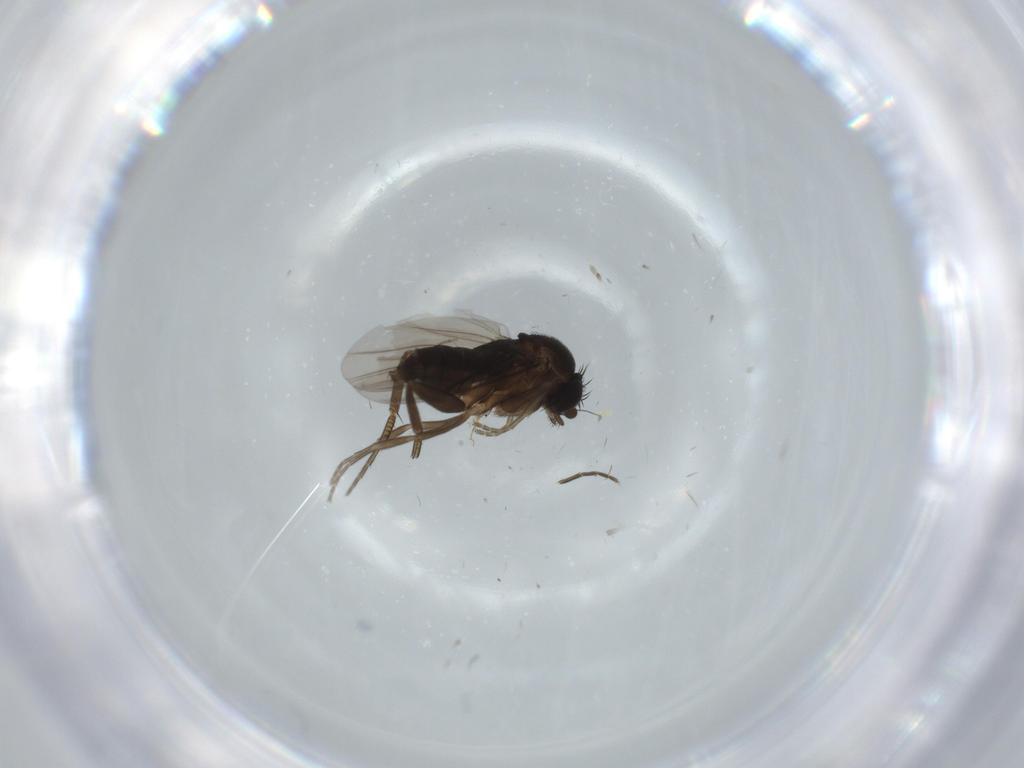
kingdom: Animalia
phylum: Arthropoda
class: Insecta
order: Diptera
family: Phoridae
